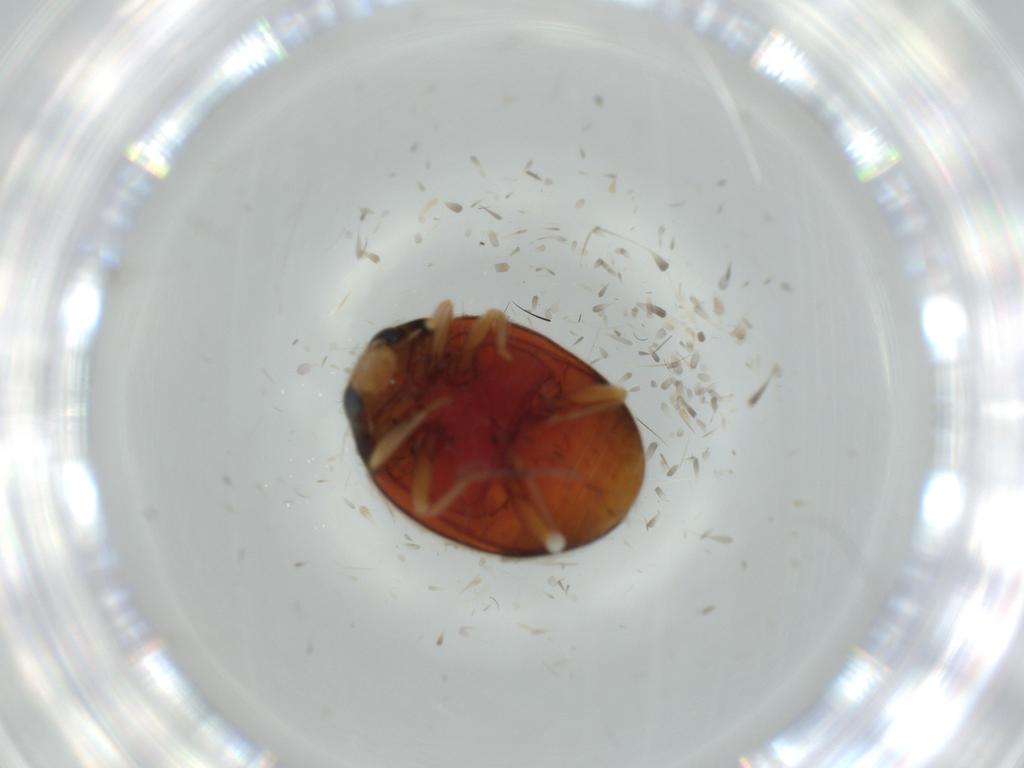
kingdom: Animalia
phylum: Arthropoda
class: Insecta
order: Coleoptera
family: Coccinellidae
